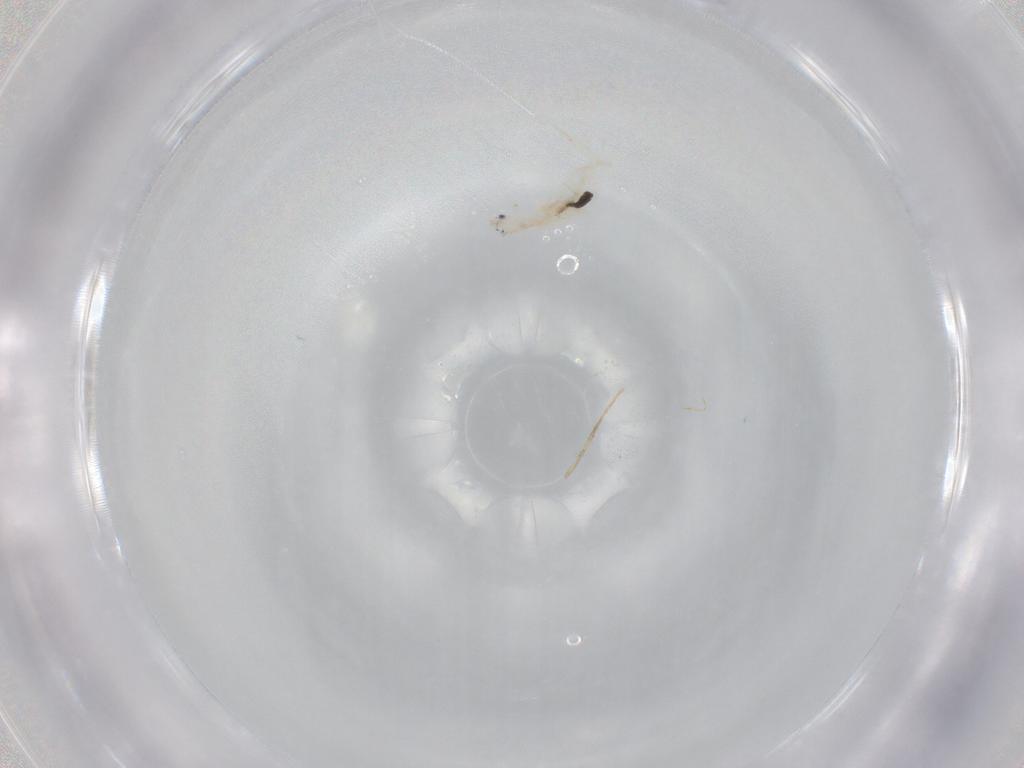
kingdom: Animalia
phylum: Arthropoda
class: Collembola
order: Entomobryomorpha
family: Entomobryidae
